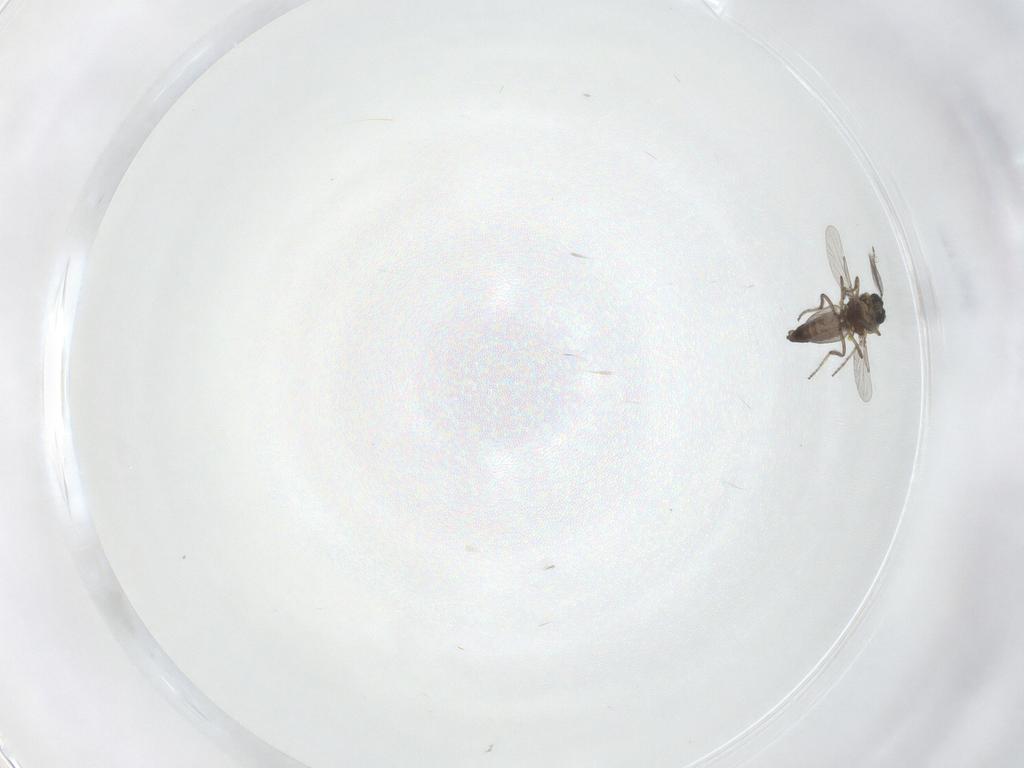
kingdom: Animalia
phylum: Arthropoda
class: Insecta
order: Diptera
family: Ceratopogonidae
